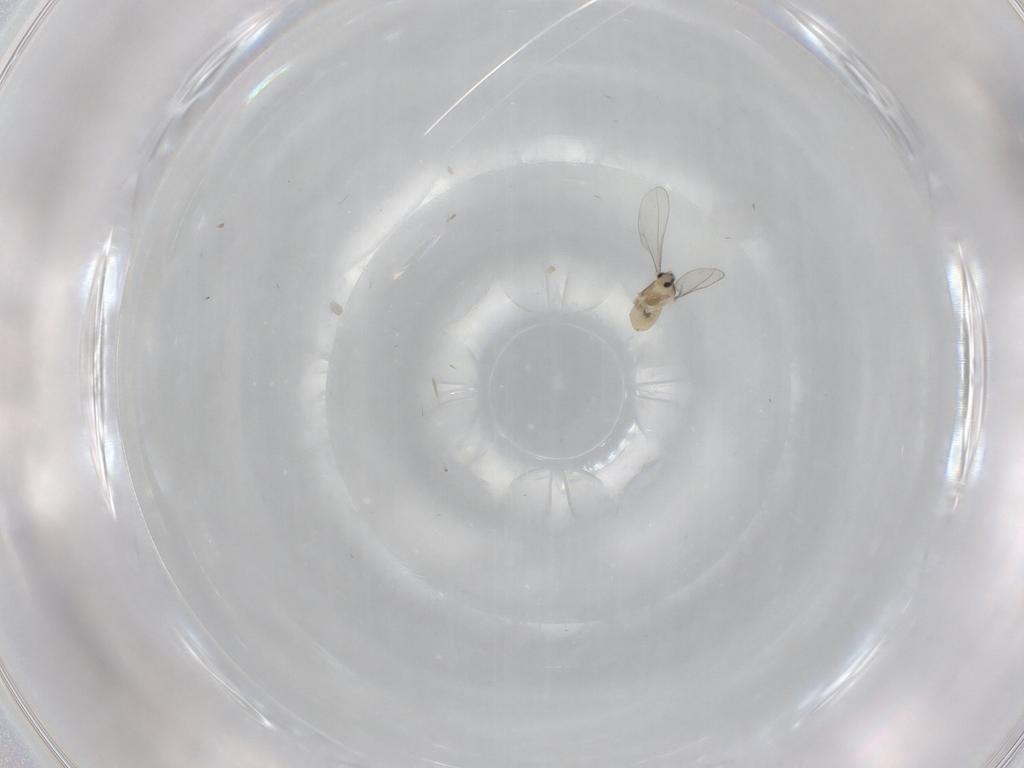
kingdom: Animalia
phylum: Arthropoda
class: Insecta
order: Diptera
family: Cecidomyiidae
